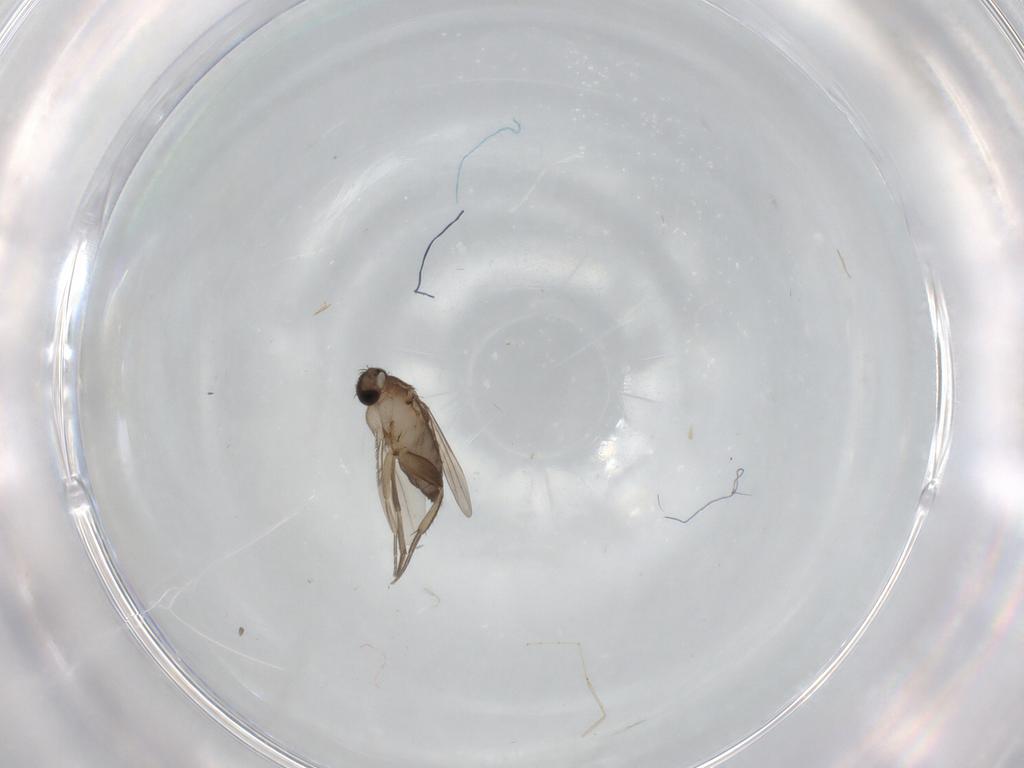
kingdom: Animalia
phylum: Arthropoda
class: Insecta
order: Diptera
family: Phoridae
